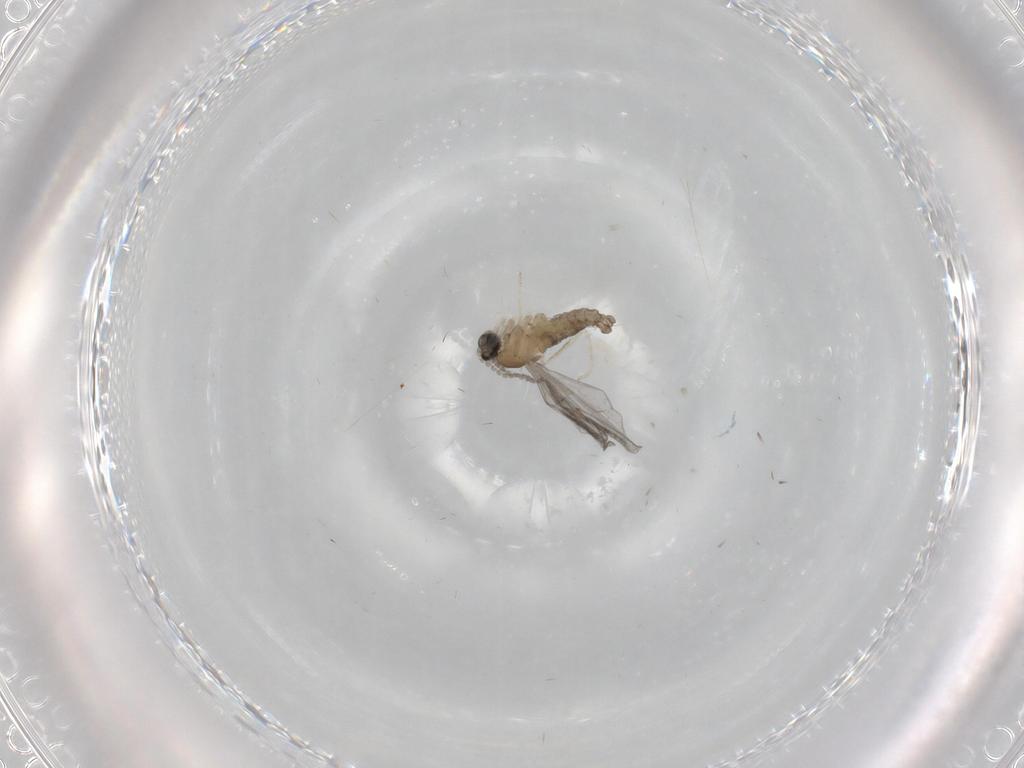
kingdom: Animalia
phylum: Arthropoda
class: Insecta
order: Diptera
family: Cecidomyiidae
